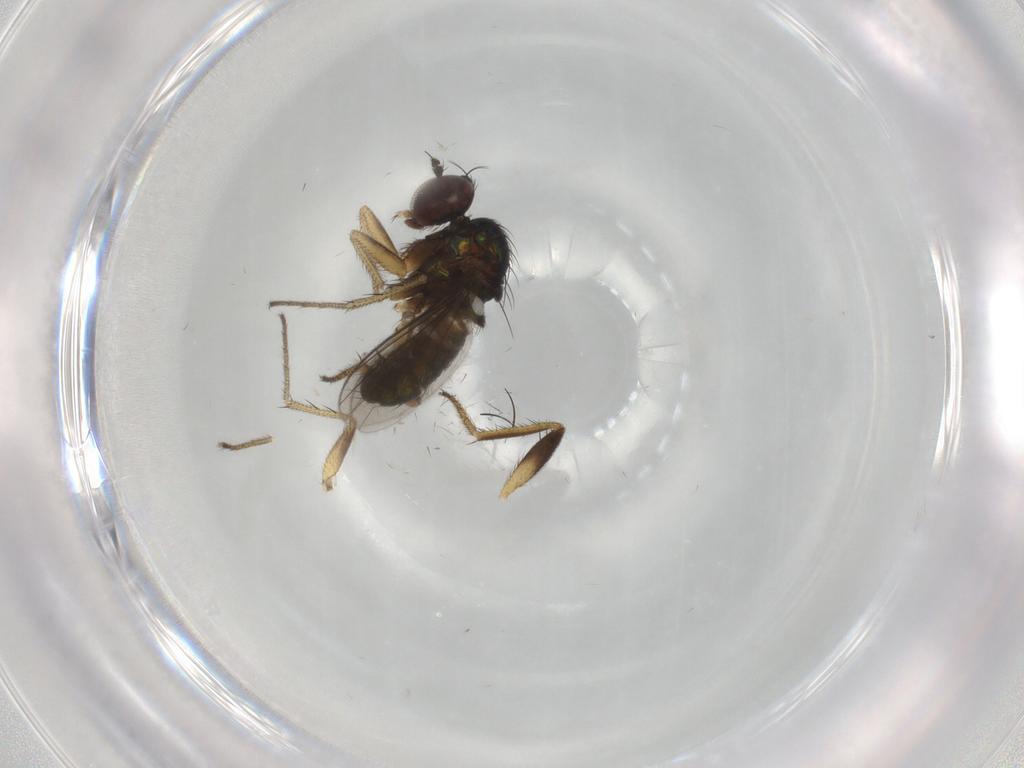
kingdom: Animalia
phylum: Arthropoda
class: Insecta
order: Diptera
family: Dolichopodidae
